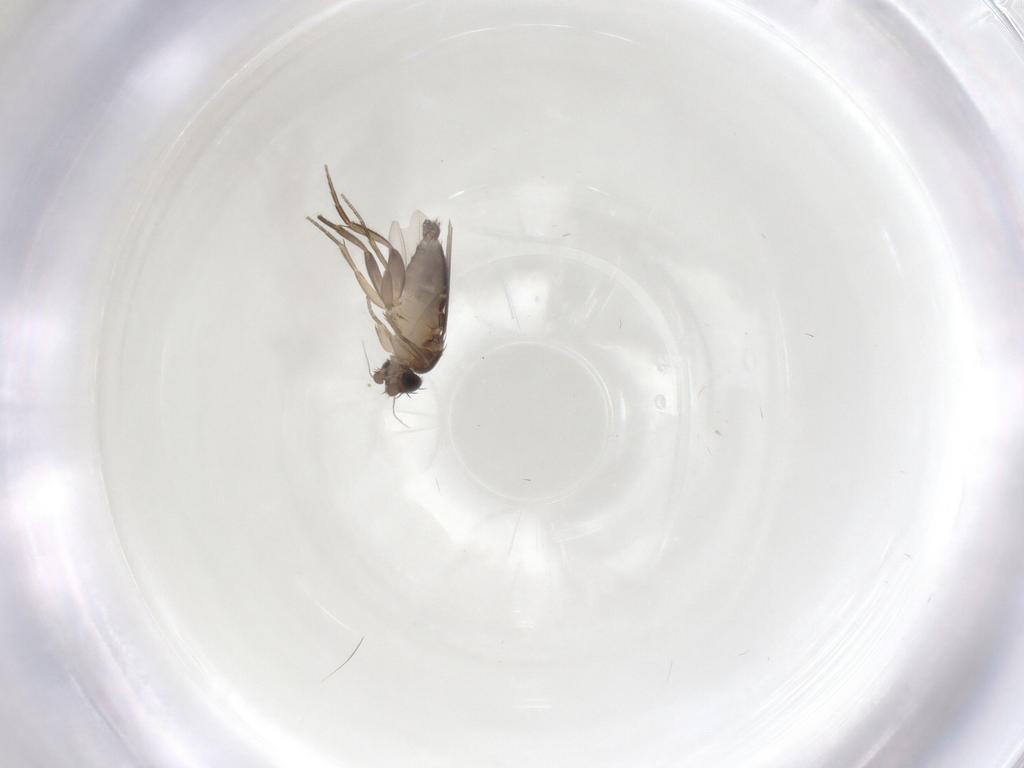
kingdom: Animalia
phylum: Arthropoda
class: Insecta
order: Diptera
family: Phoridae
